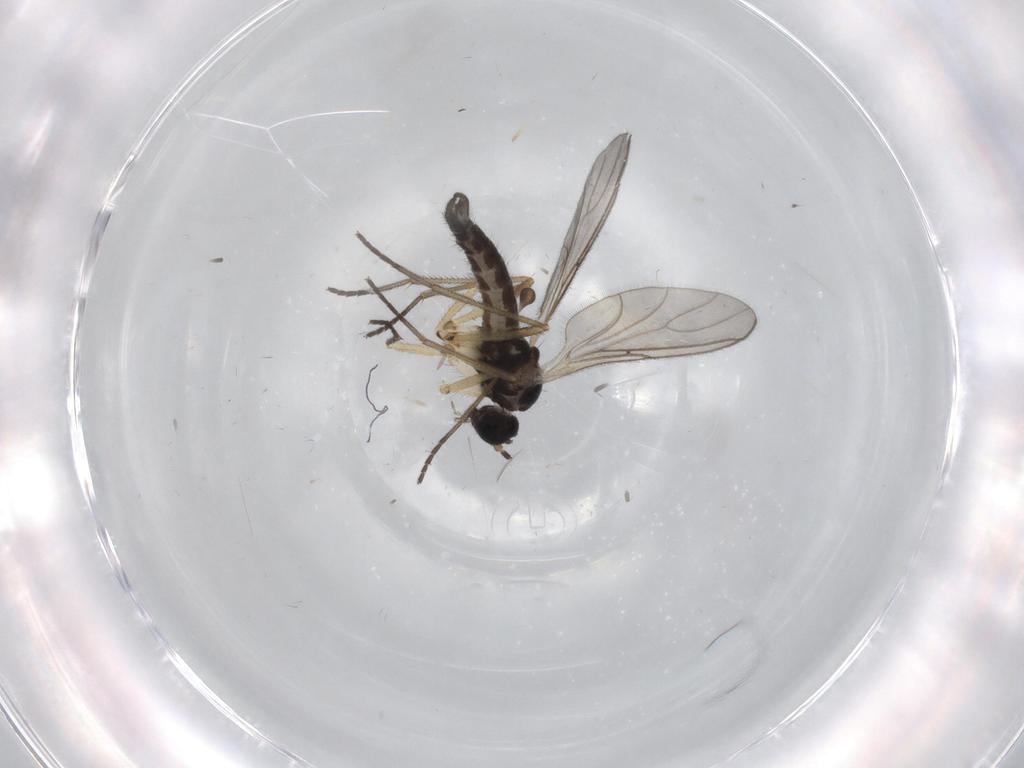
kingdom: Animalia
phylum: Arthropoda
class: Insecta
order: Diptera
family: Sciaridae
